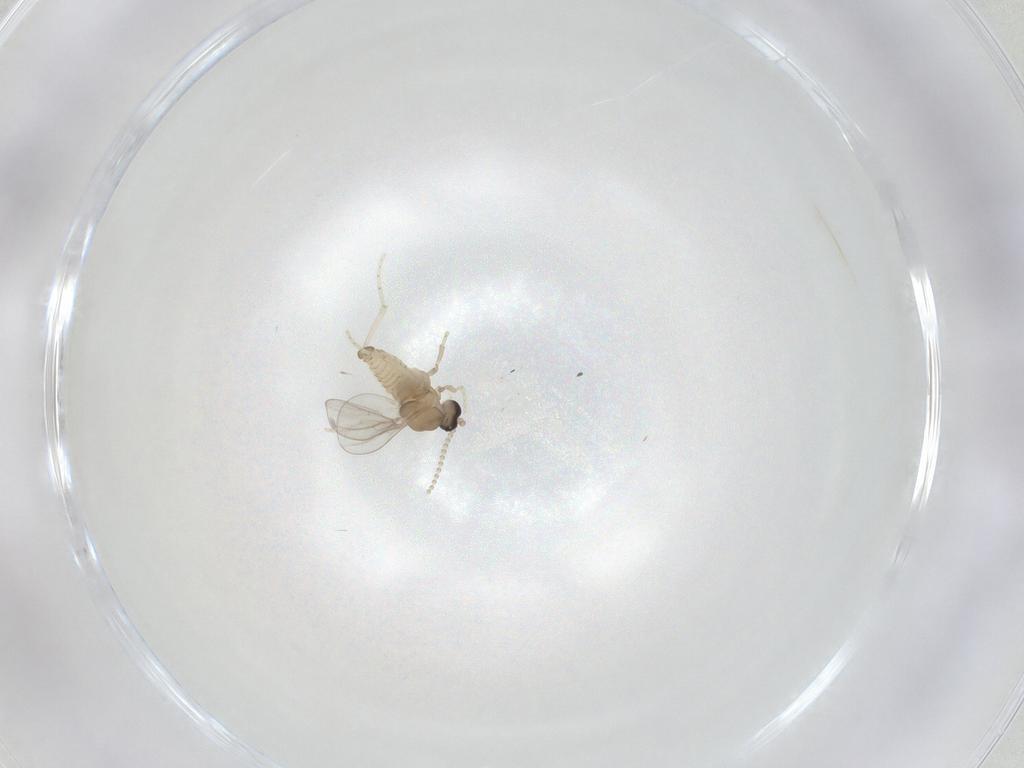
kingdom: Animalia
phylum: Arthropoda
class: Insecta
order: Diptera
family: Cecidomyiidae
